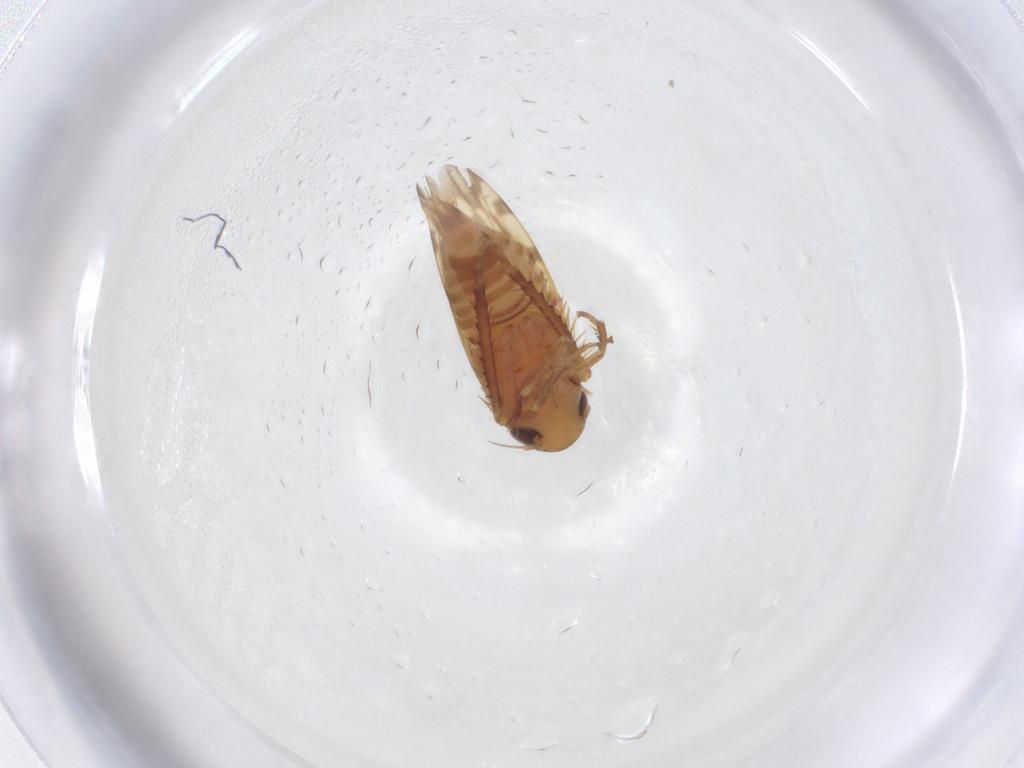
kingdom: Animalia
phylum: Arthropoda
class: Insecta
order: Hemiptera
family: Cicadellidae
